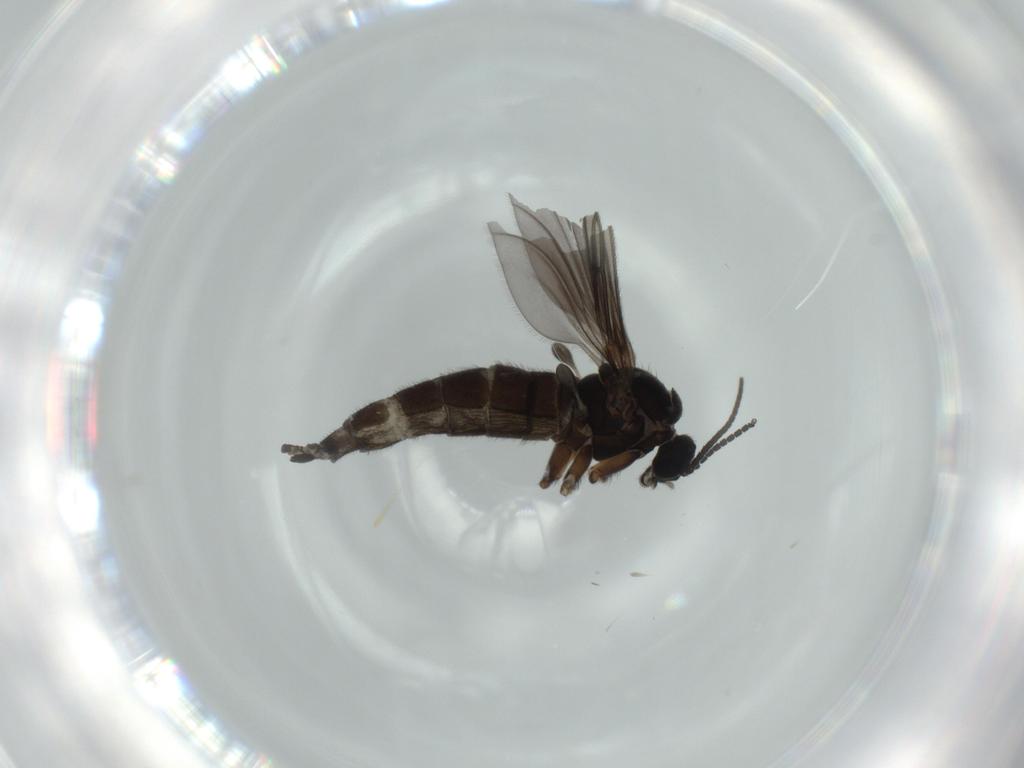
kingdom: Animalia
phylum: Arthropoda
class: Insecta
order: Diptera
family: Sciaridae
